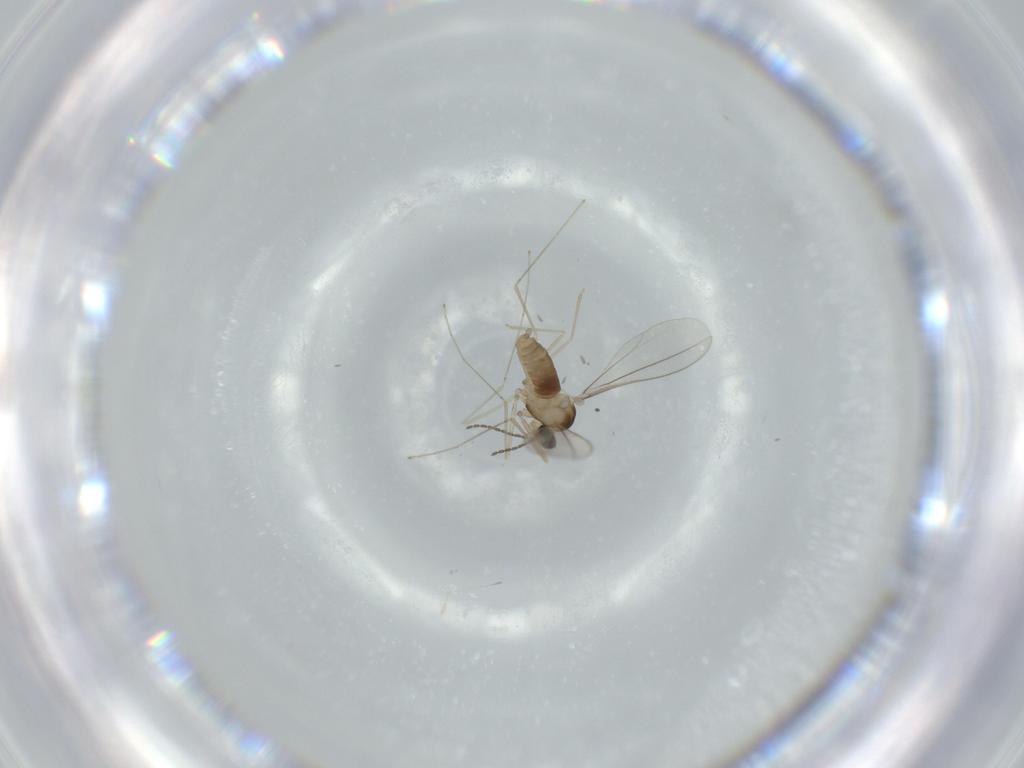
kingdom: Animalia
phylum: Arthropoda
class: Insecta
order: Diptera
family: Cecidomyiidae
